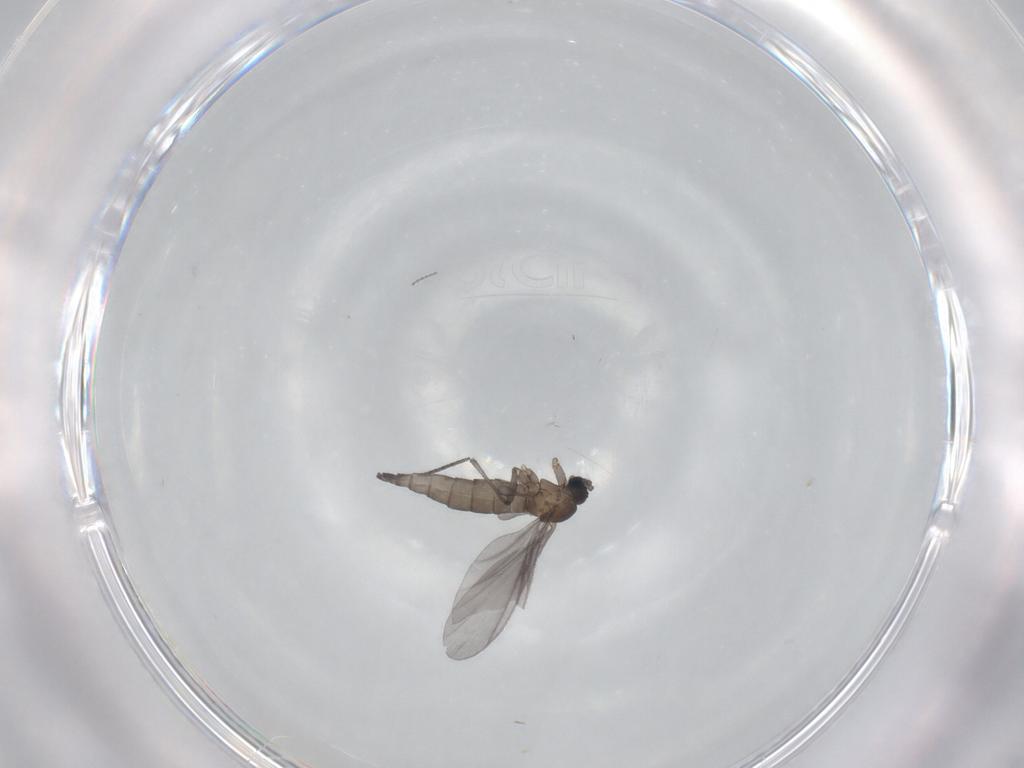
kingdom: Animalia
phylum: Arthropoda
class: Insecta
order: Diptera
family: Sciaridae
